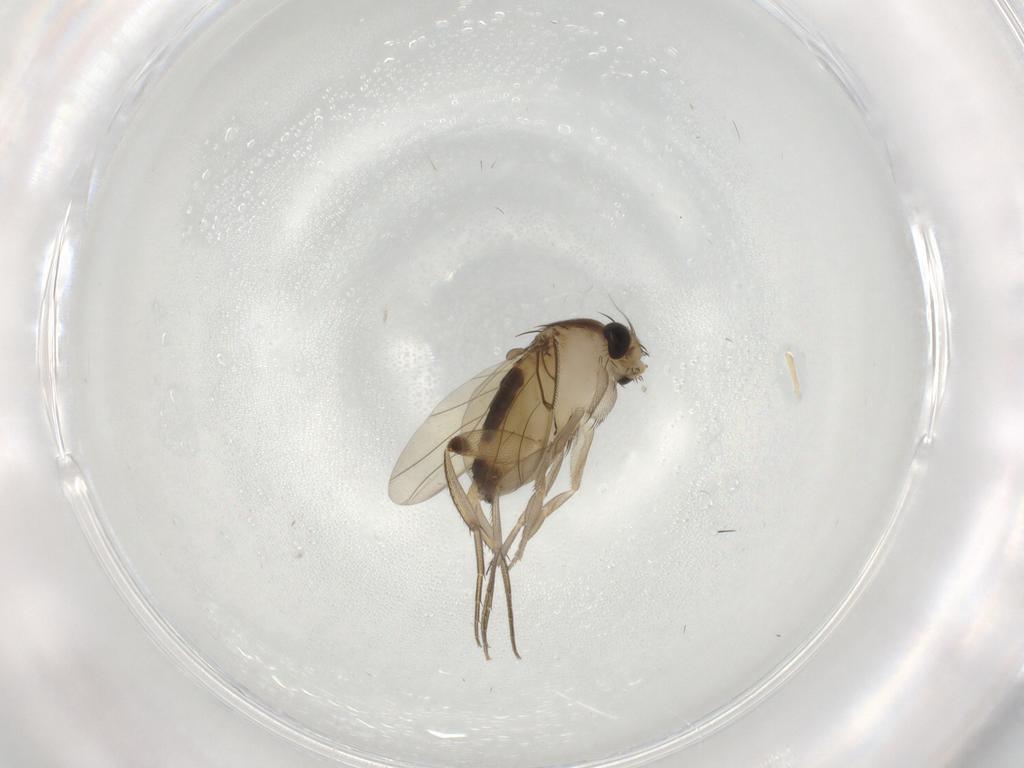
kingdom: Animalia
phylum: Arthropoda
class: Insecta
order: Diptera
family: Phoridae
